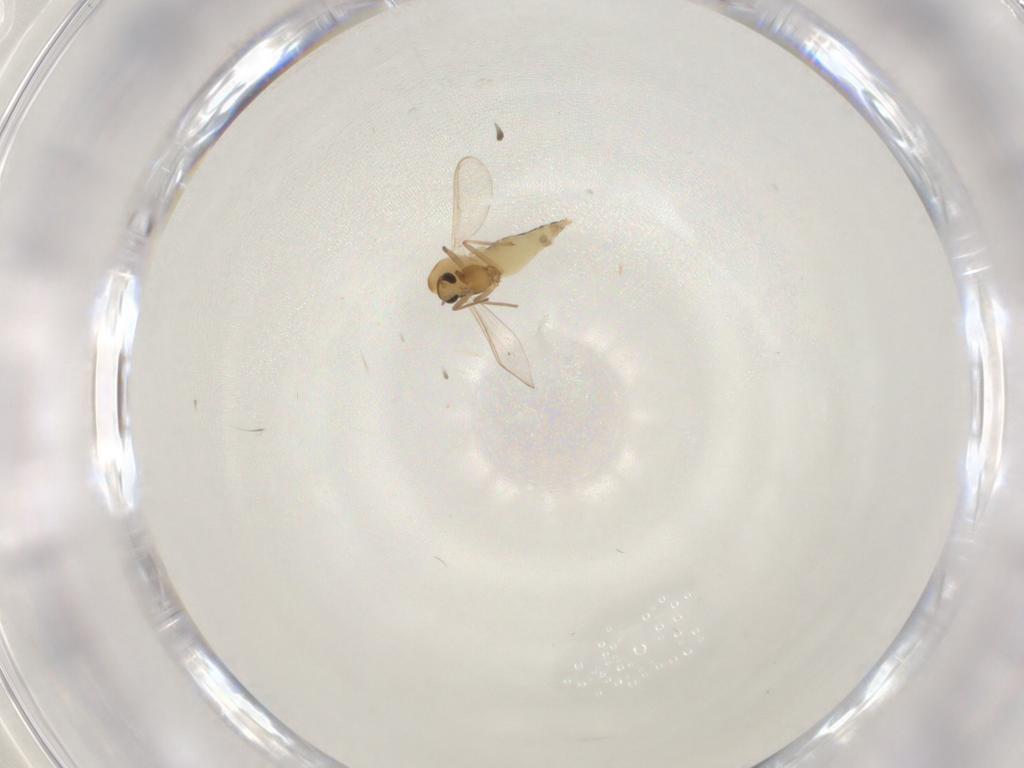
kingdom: Animalia
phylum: Arthropoda
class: Insecta
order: Diptera
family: Chironomidae
